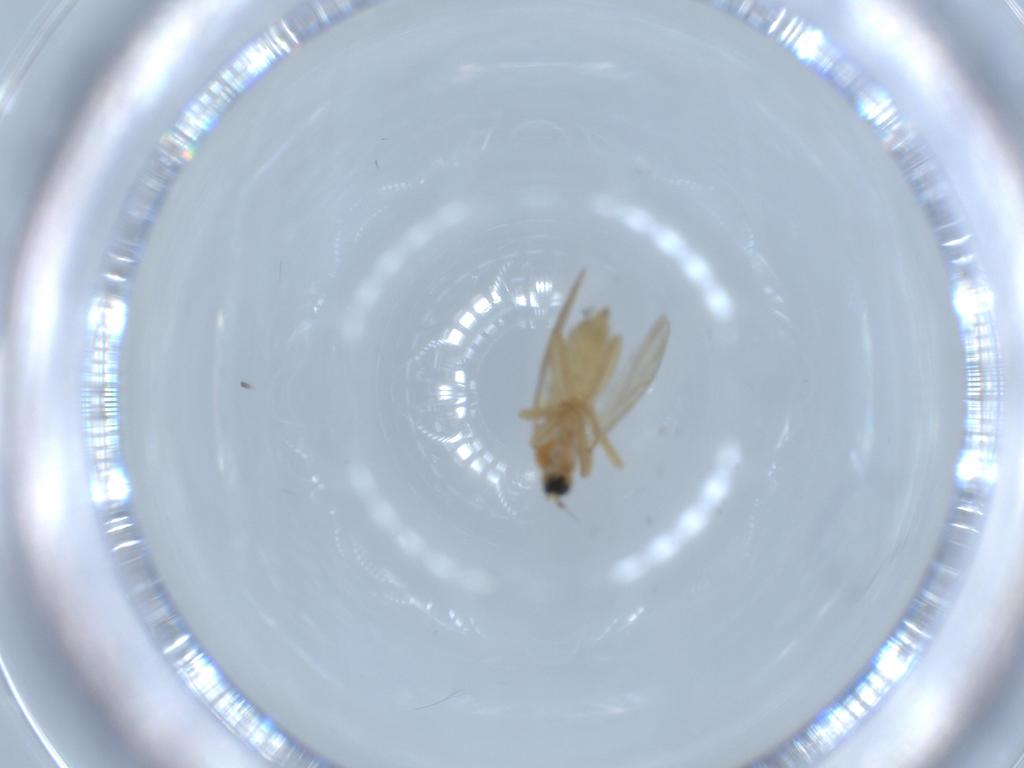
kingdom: Animalia
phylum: Arthropoda
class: Insecta
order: Diptera
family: Hybotidae
